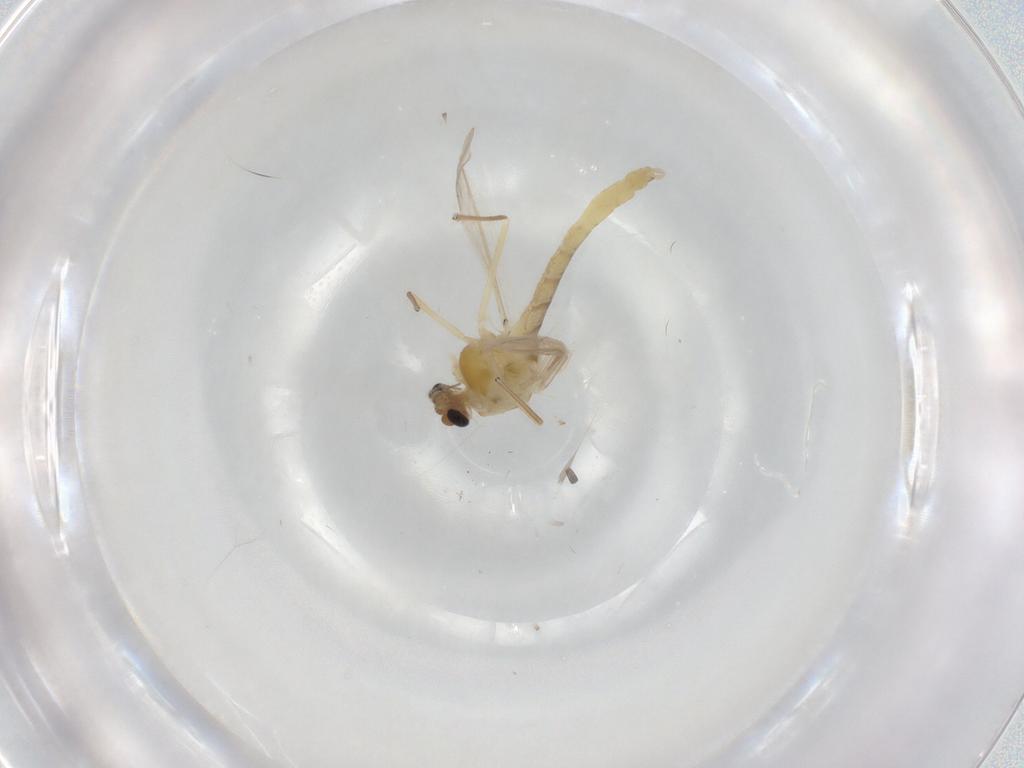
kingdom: Animalia
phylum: Arthropoda
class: Insecta
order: Diptera
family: Chironomidae
